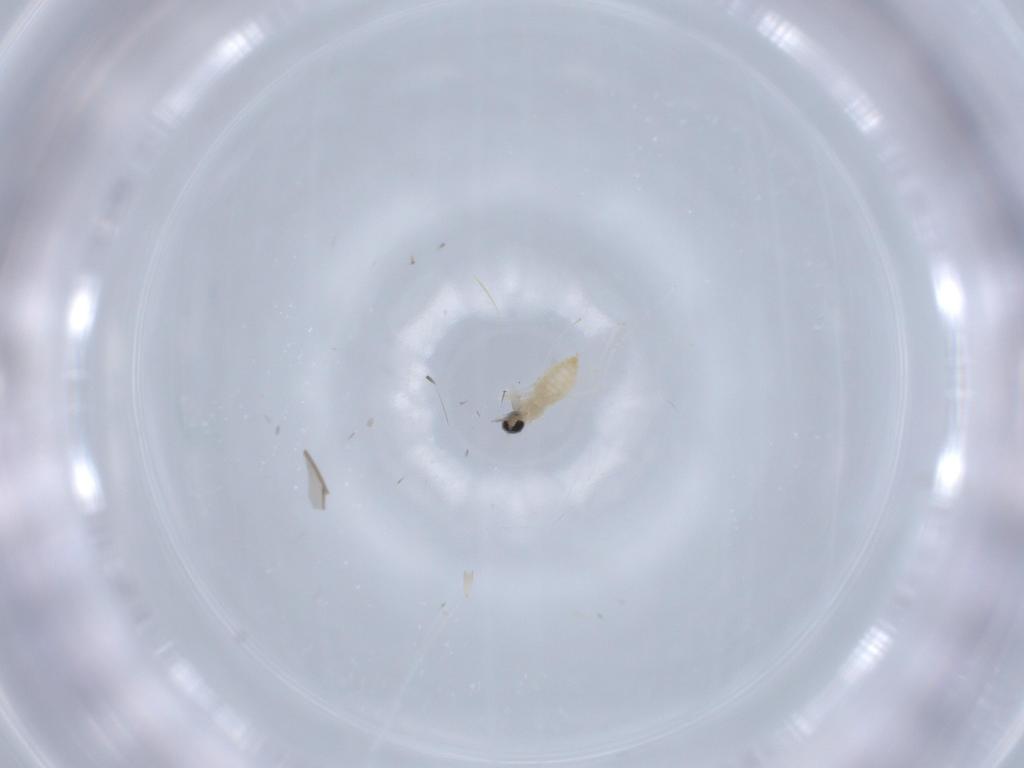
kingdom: Animalia
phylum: Arthropoda
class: Insecta
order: Diptera
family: Cecidomyiidae
